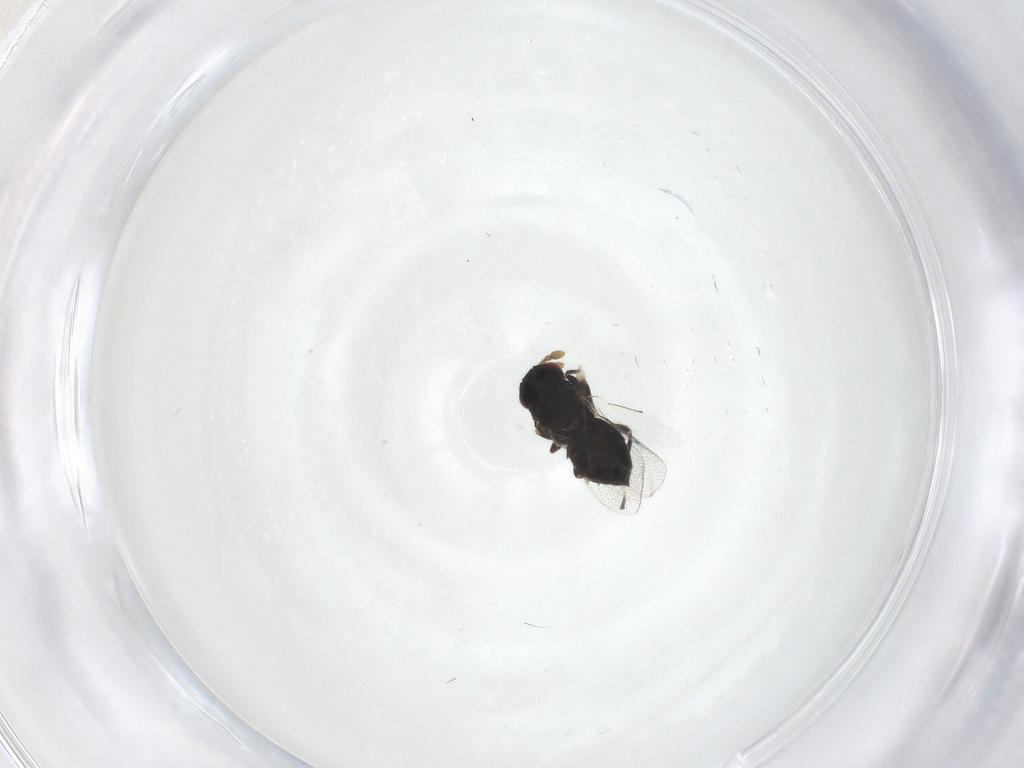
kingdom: Animalia
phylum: Arthropoda
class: Insecta
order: Hymenoptera
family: Eulophidae
